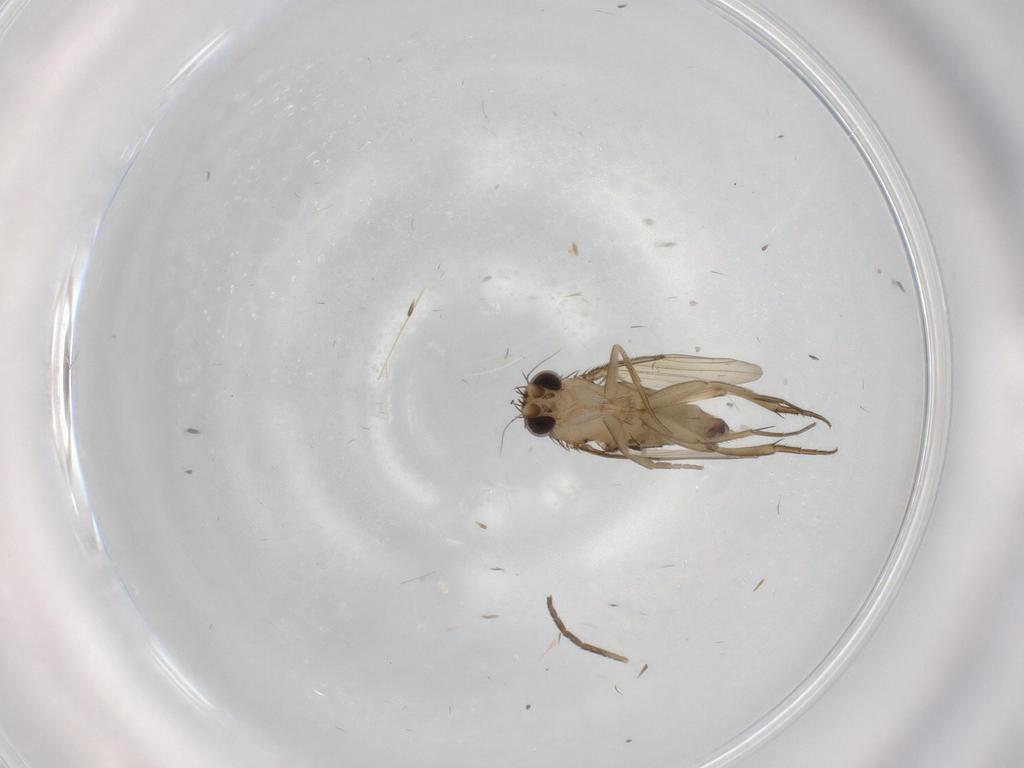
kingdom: Animalia
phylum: Arthropoda
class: Insecta
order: Diptera
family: Cecidomyiidae
